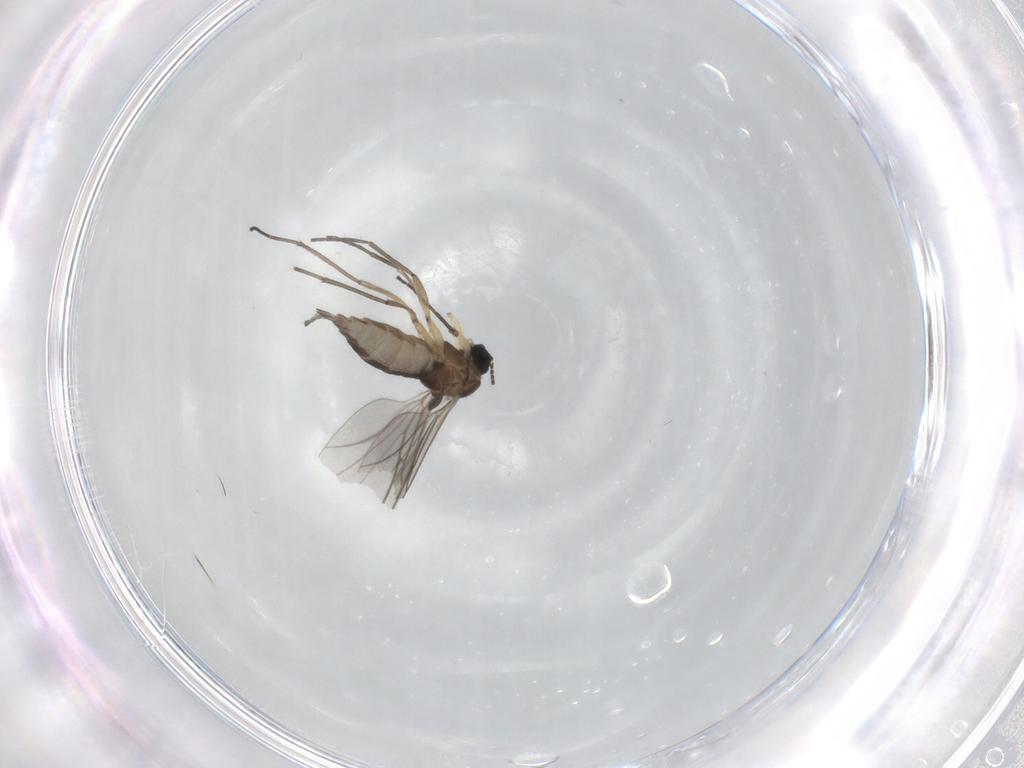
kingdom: Animalia
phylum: Arthropoda
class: Insecta
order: Diptera
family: Sciaridae
